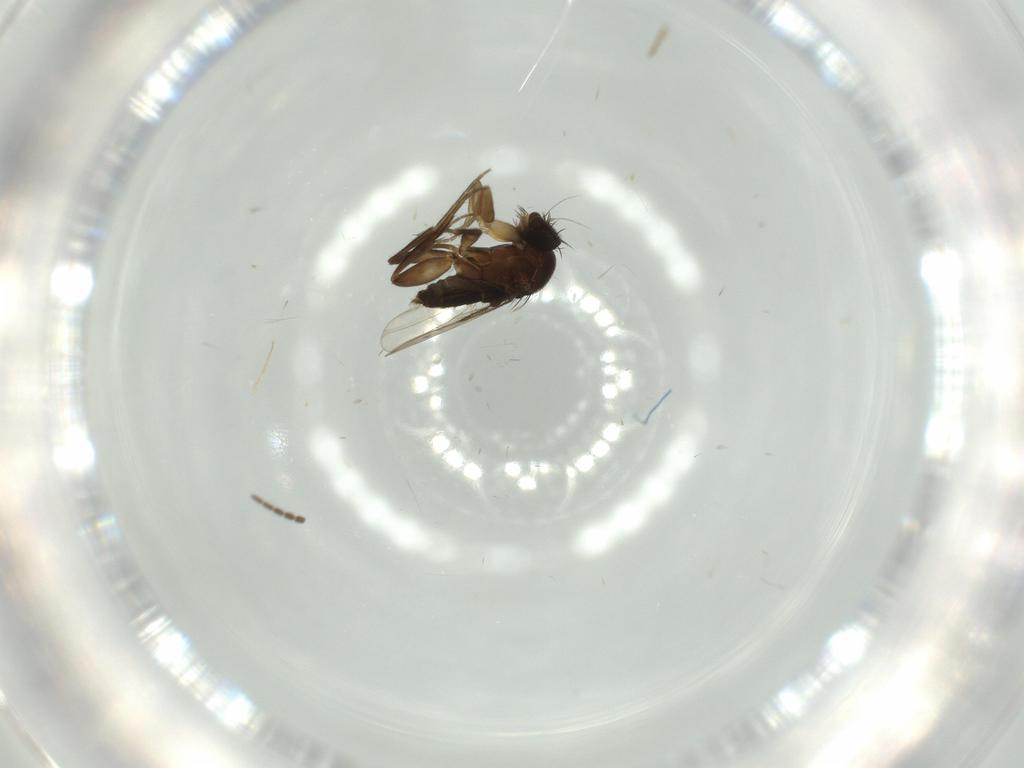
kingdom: Animalia
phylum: Arthropoda
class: Insecta
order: Diptera
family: Phoridae
